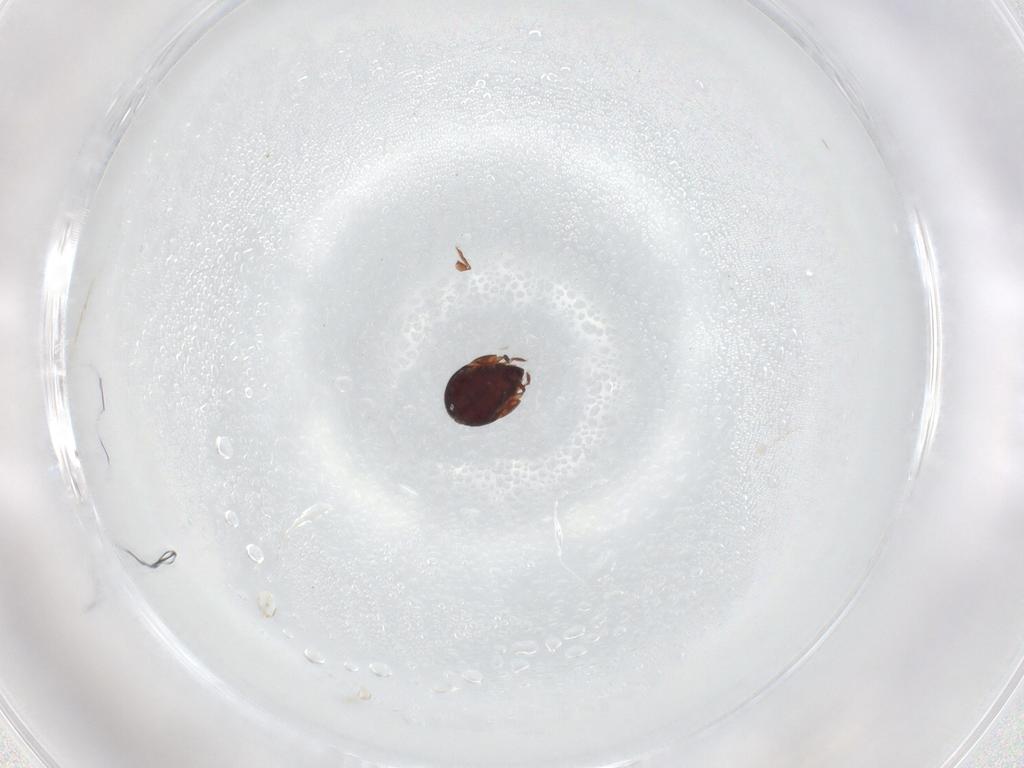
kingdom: Animalia
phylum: Arthropoda
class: Arachnida
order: Sarcoptiformes
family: Humerobatidae
